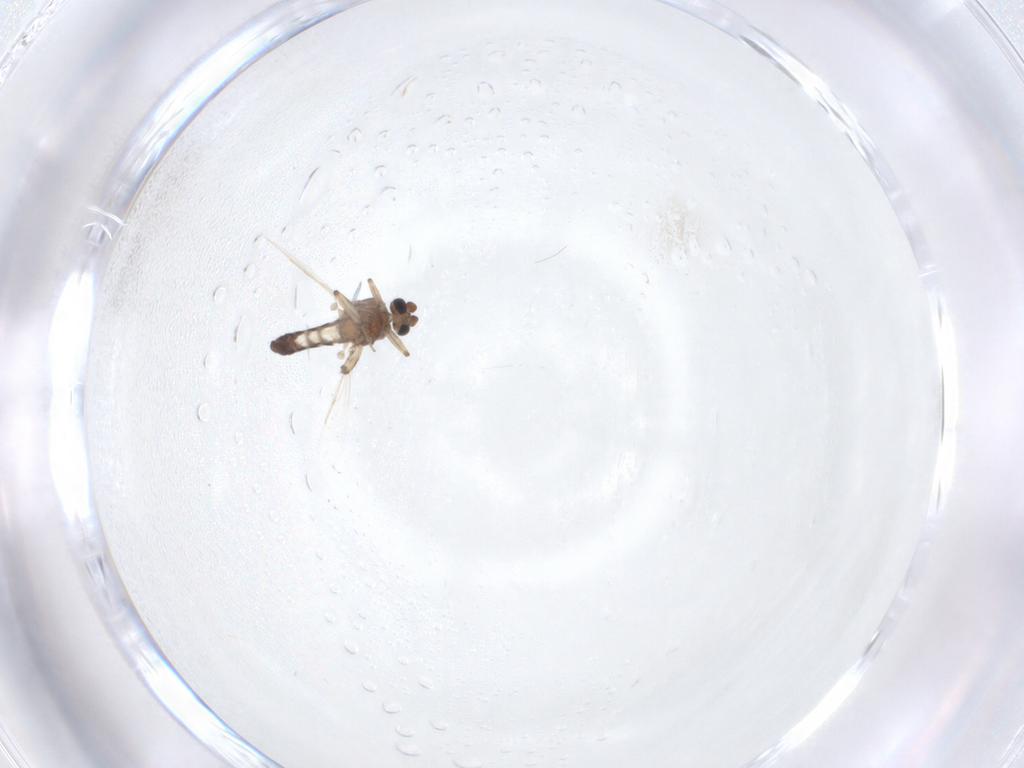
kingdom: Animalia
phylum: Arthropoda
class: Insecta
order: Diptera
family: Ceratopogonidae
